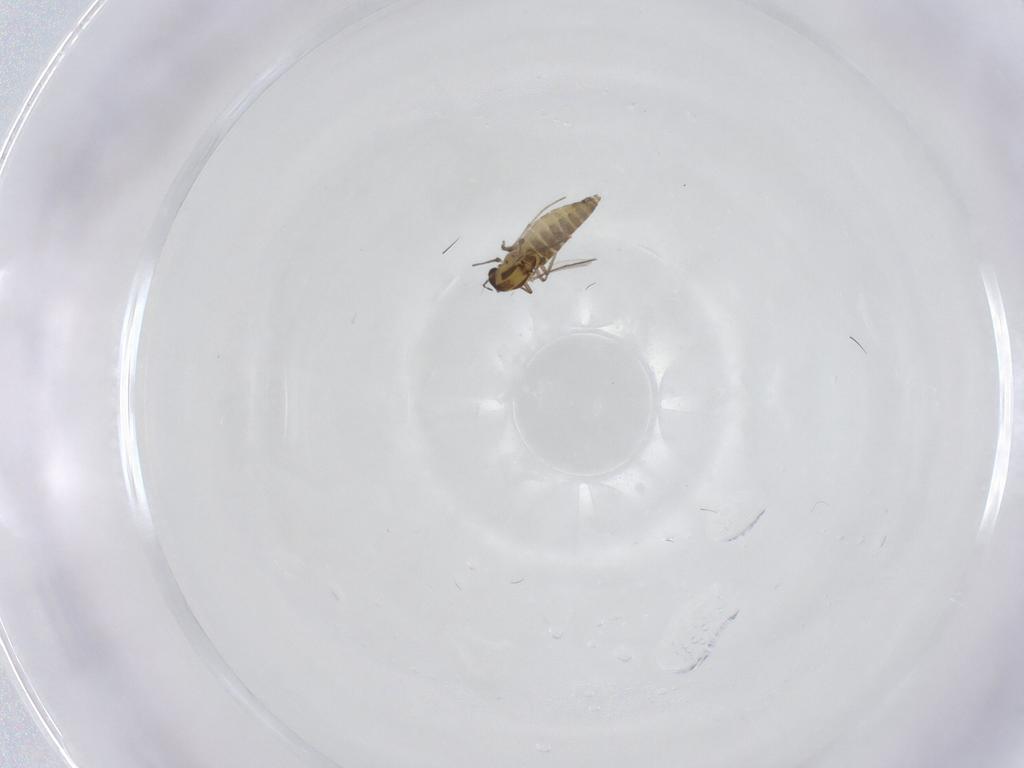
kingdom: Animalia
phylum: Arthropoda
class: Insecta
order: Diptera
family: Chironomidae
